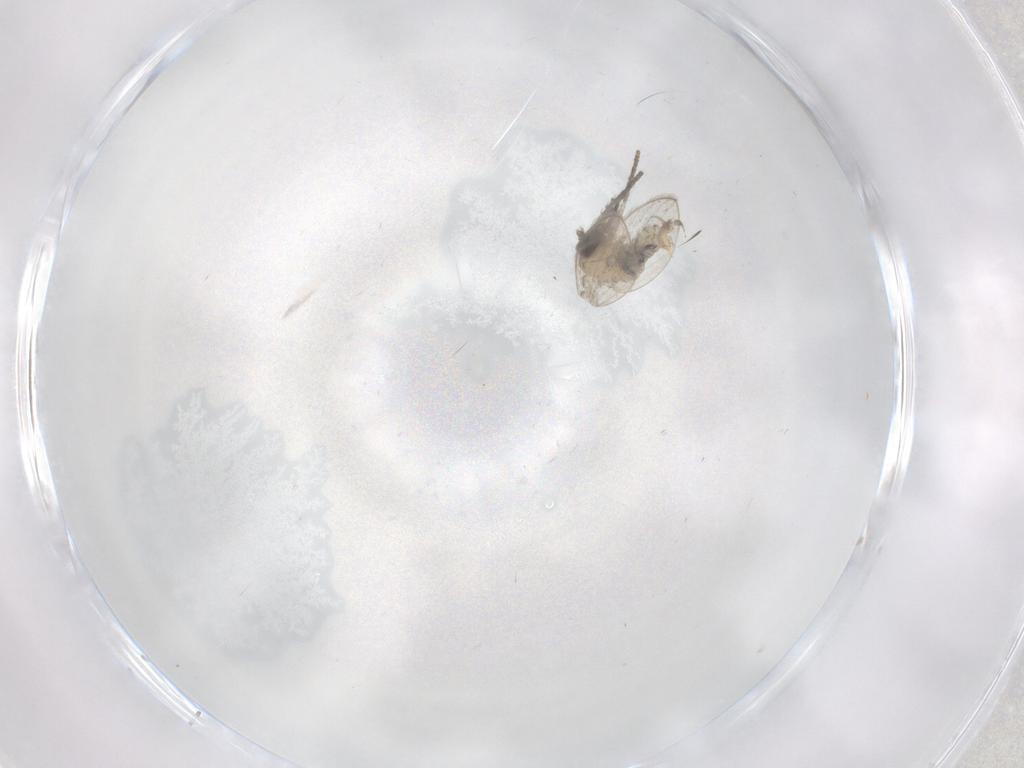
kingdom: Animalia
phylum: Arthropoda
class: Insecta
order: Diptera
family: Psychodidae
